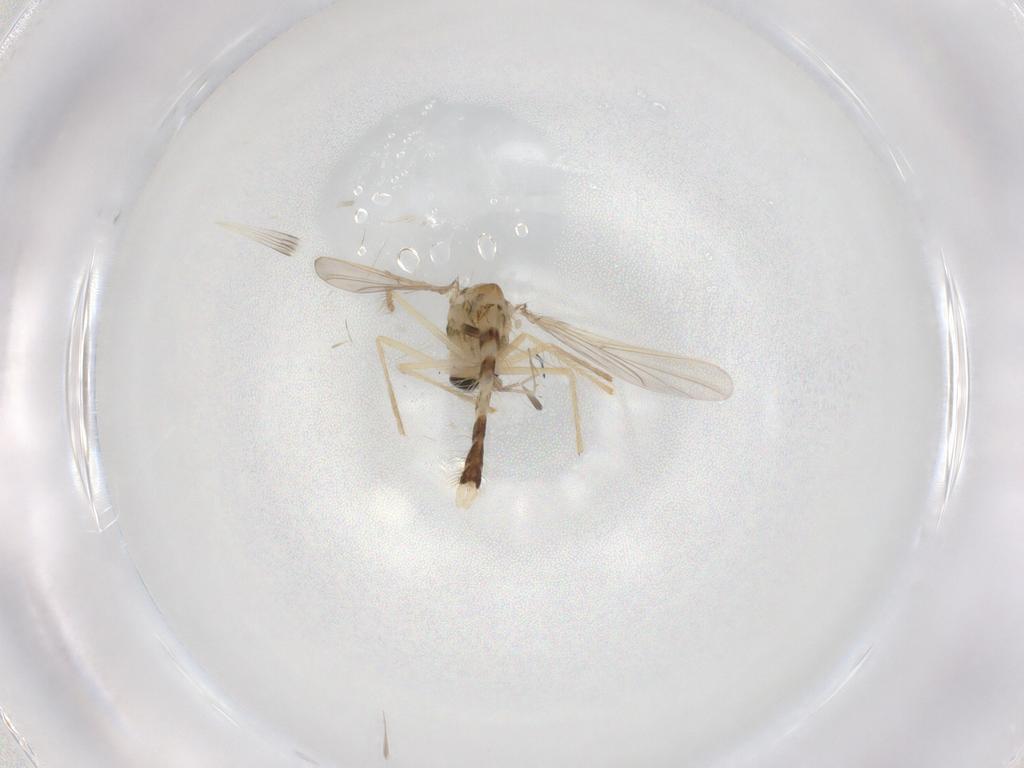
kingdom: Animalia
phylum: Arthropoda
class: Insecta
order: Diptera
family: Chironomidae
